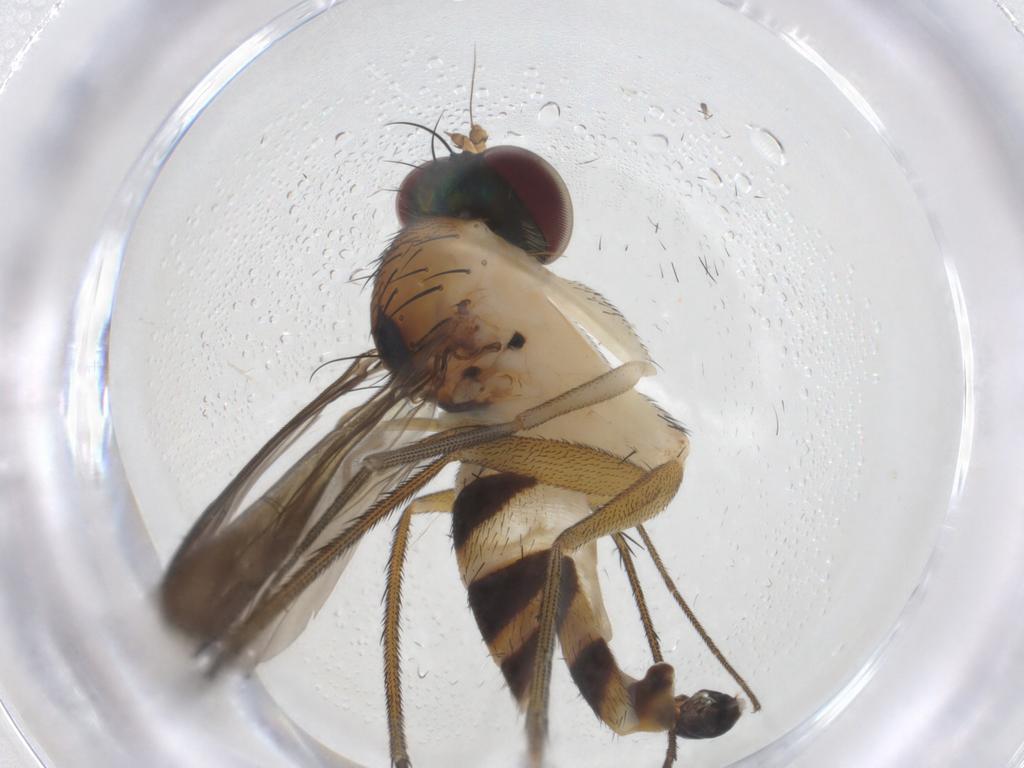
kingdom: Animalia
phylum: Arthropoda
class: Insecta
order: Diptera
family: Dolichopodidae
